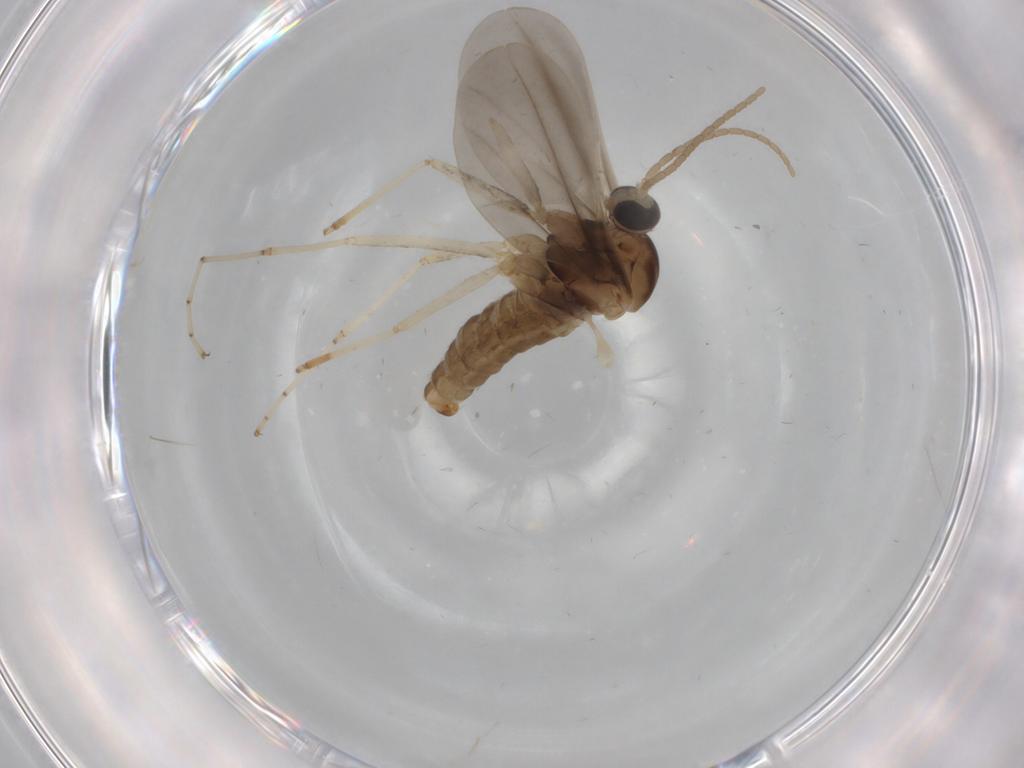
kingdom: Animalia
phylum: Arthropoda
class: Insecta
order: Diptera
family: Cecidomyiidae
